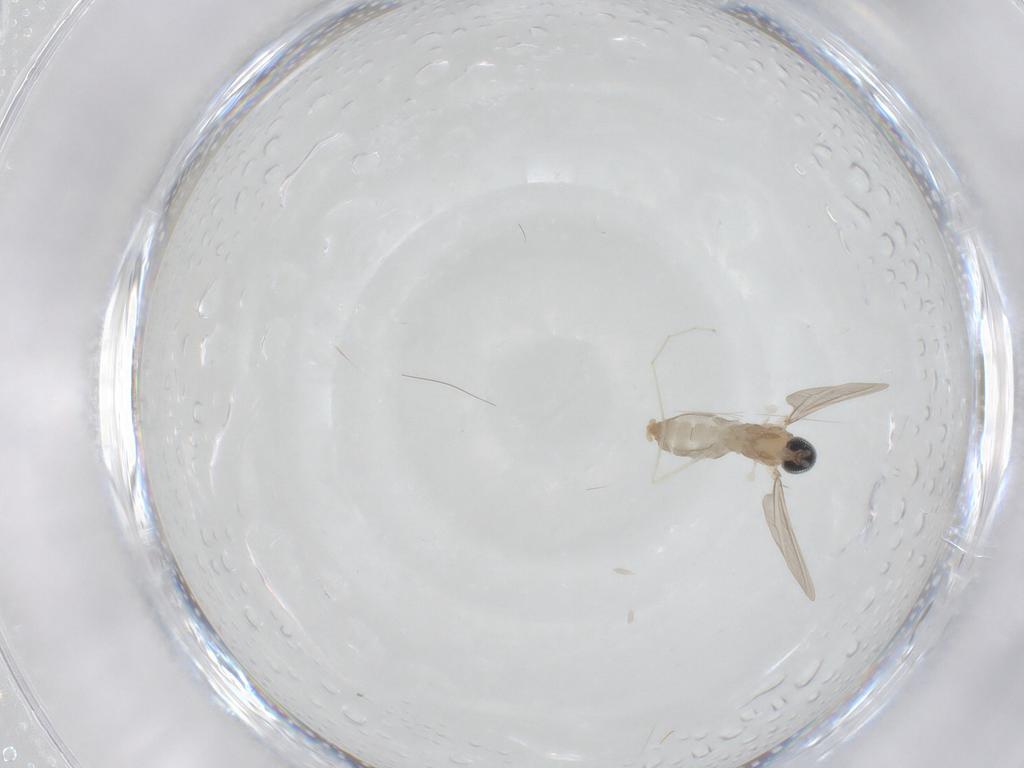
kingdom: Animalia
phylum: Arthropoda
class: Insecta
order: Diptera
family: Cecidomyiidae
